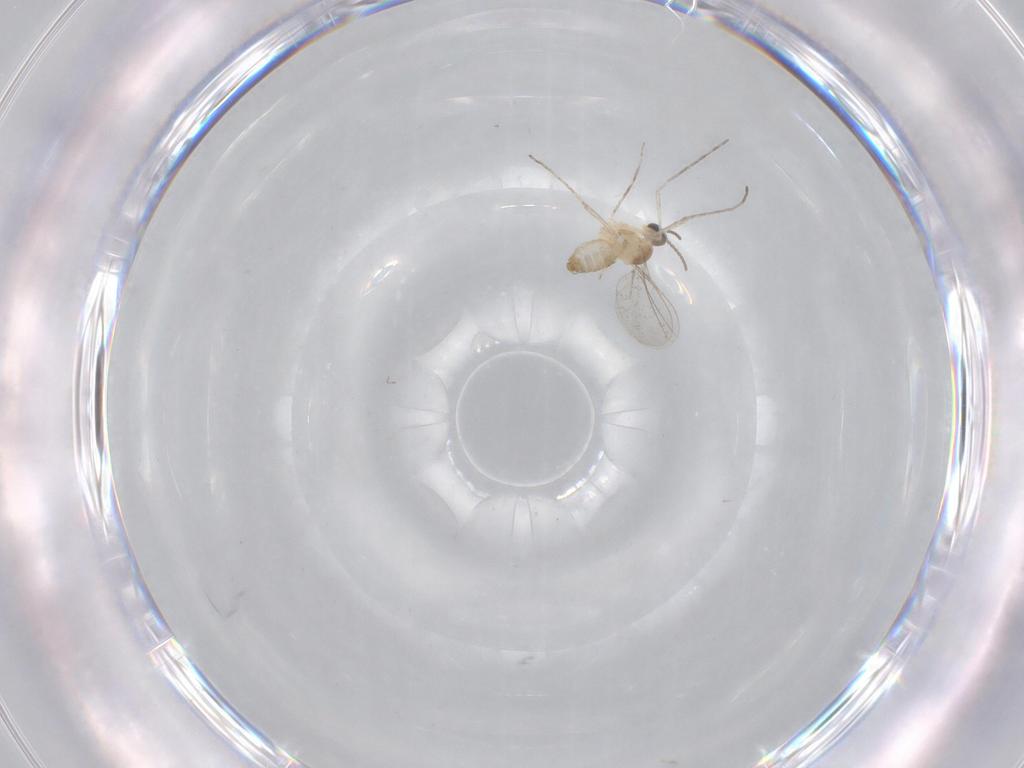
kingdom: Animalia
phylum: Arthropoda
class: Insecta
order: Diptera
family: Cecidomyiidae
